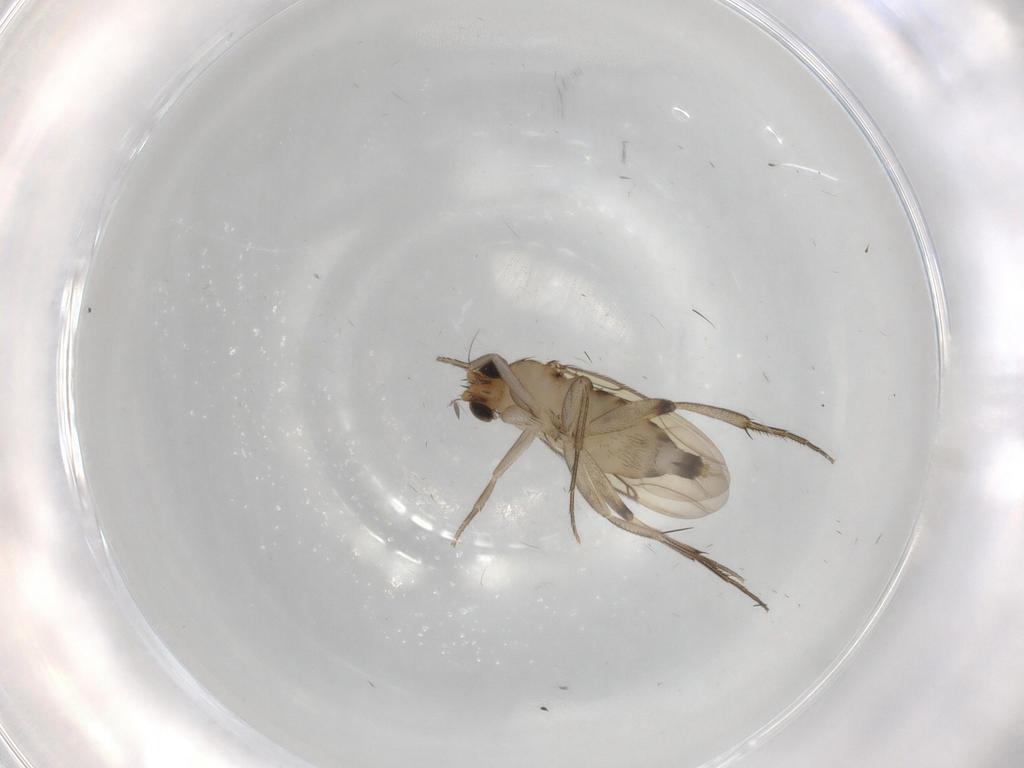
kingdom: Animalia
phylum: Arthropoda
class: Insecta
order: Diptera
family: Phoridae
